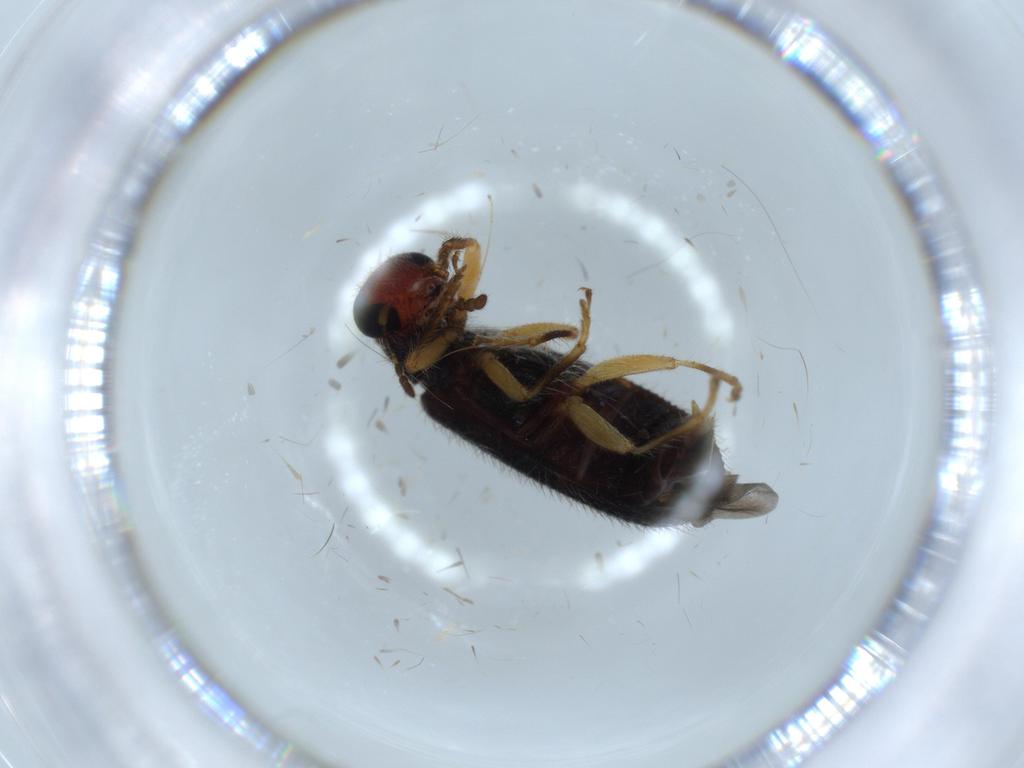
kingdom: Animalia
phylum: Arthropoda
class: Insecta
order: Coleoptera
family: Cleridae
